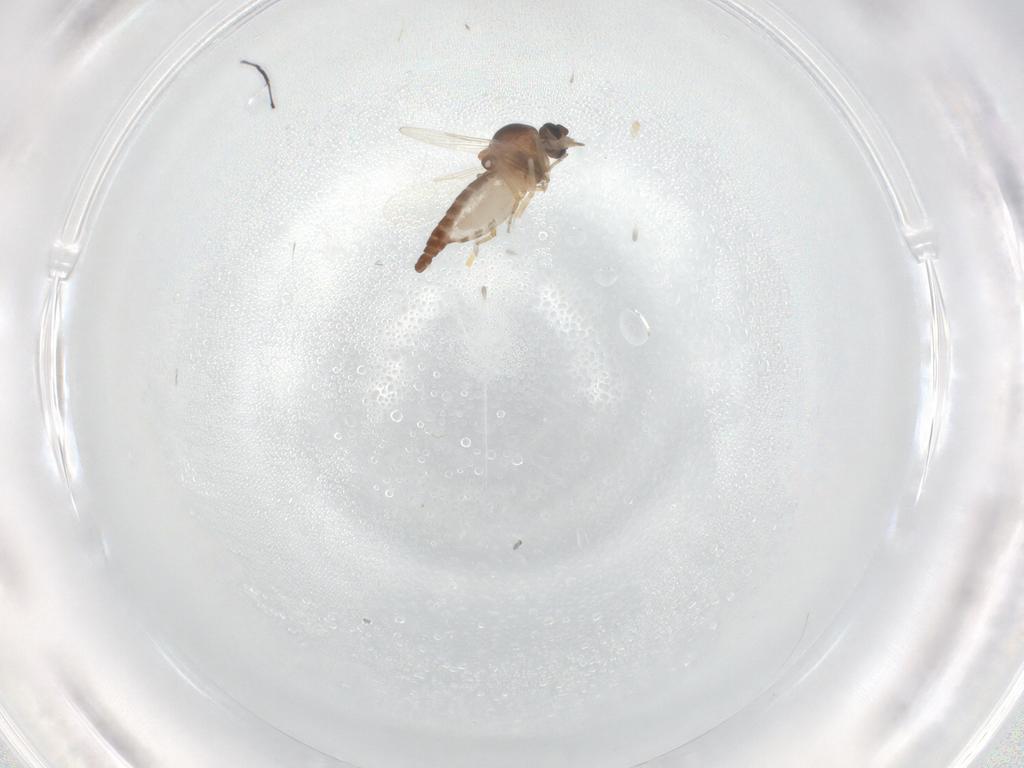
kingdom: Animalia
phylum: Arthropoda
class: Insecta
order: Diptera
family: Ceratopogonidae
